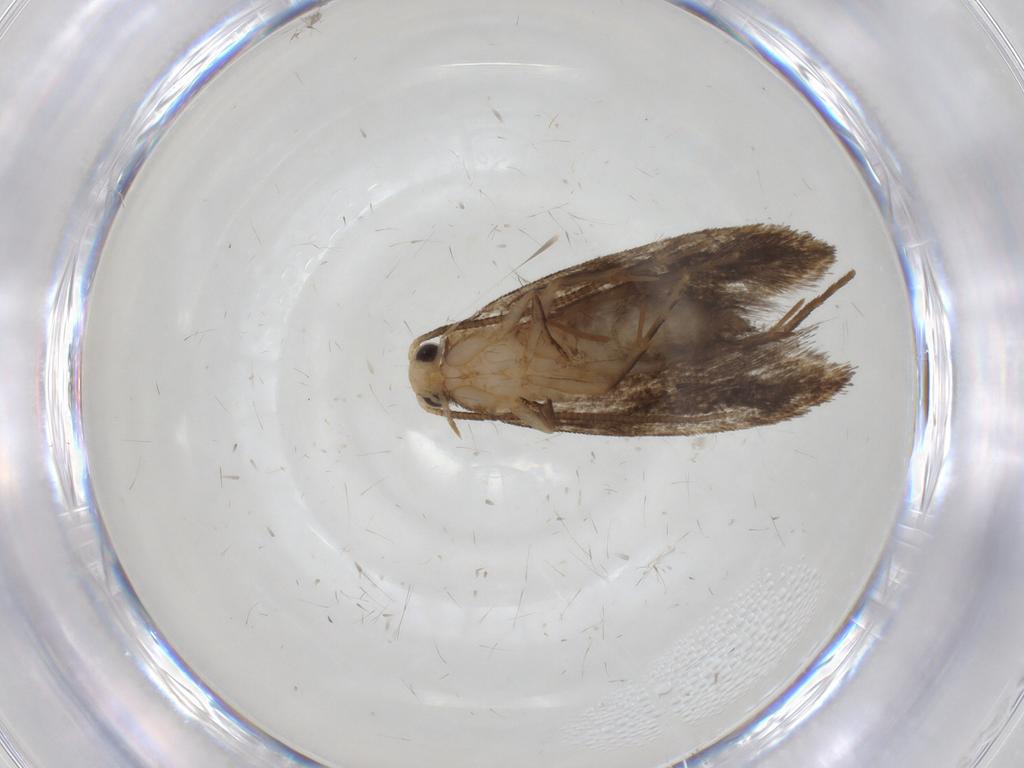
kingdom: Animalia
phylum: Arthropoda
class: Insecta
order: Lepidoptera
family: Tineidae
